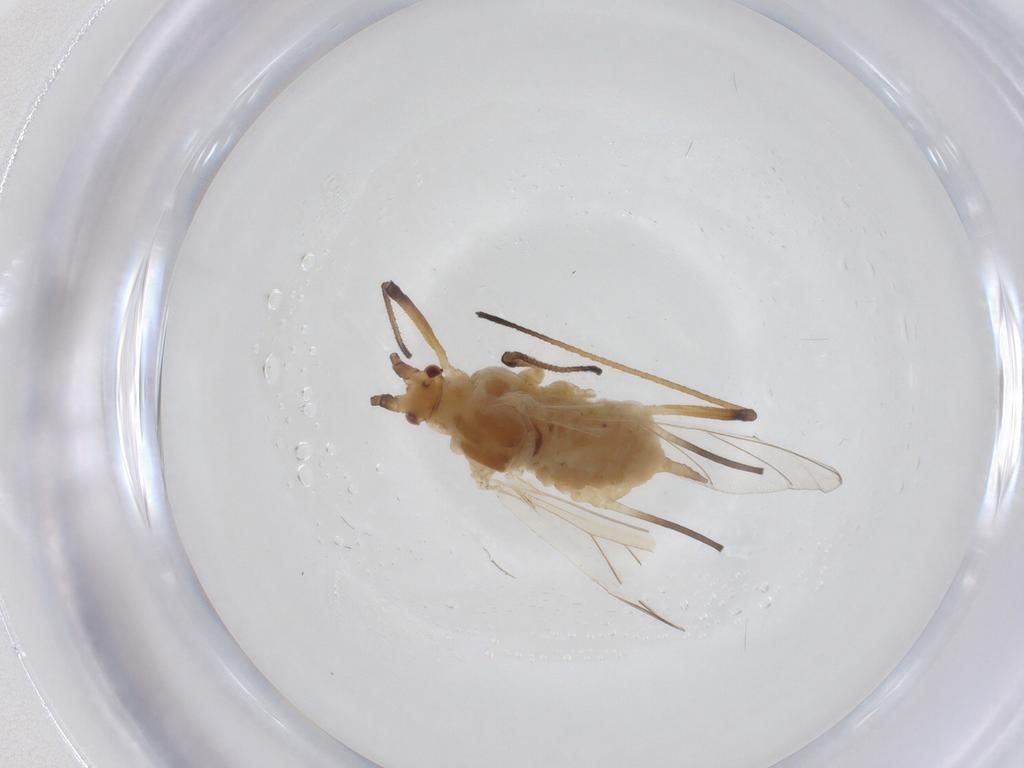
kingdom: Animalia
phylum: Arthropoda
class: Insecta
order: Hemiptera
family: Aphididae
